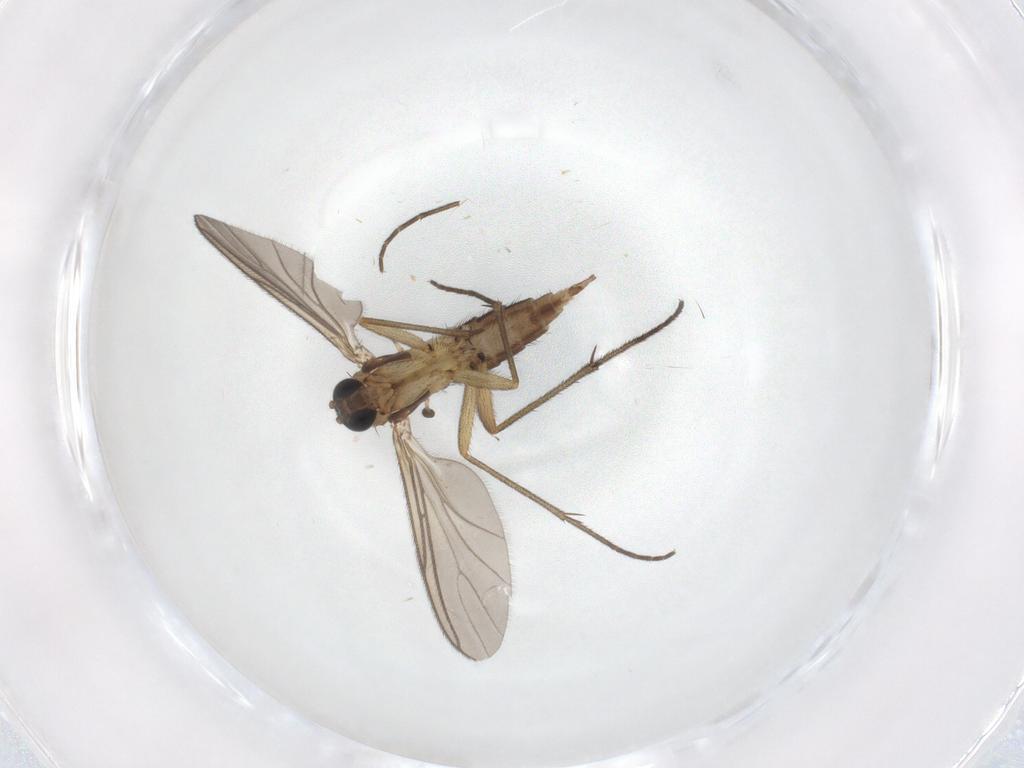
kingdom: Animalia
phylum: Arthropoda
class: Insecta
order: Diptera
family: Sciaridae
